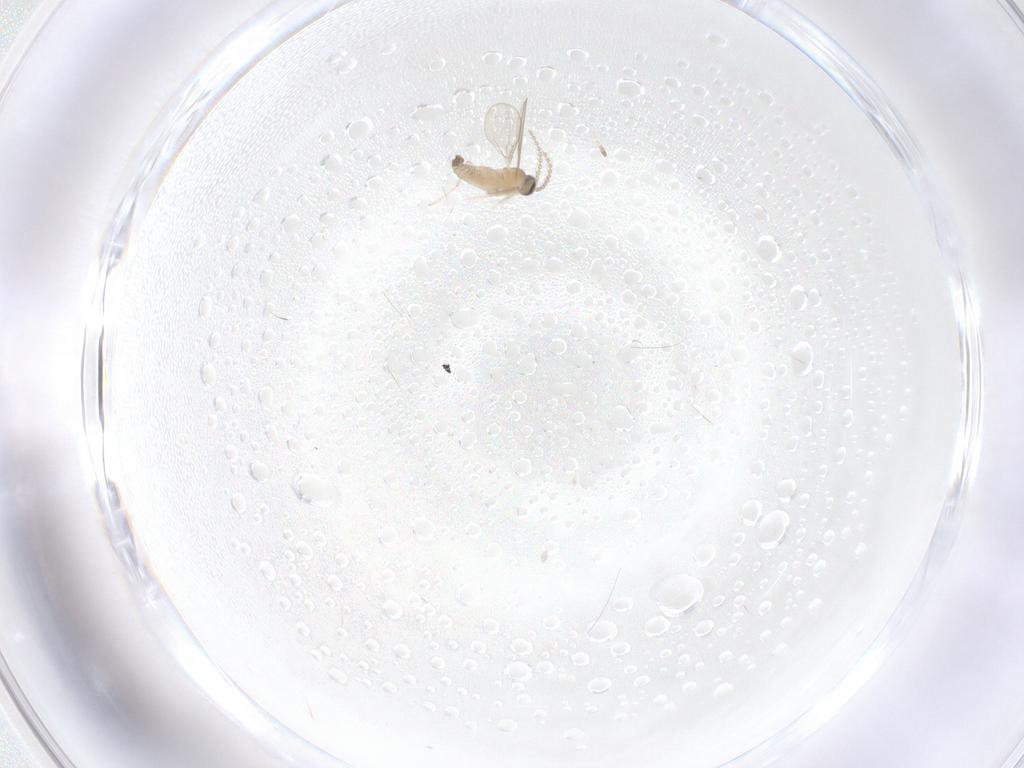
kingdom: Animalia
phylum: Arthropoda
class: Insecta
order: Diptera
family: Cecidomyiidae
